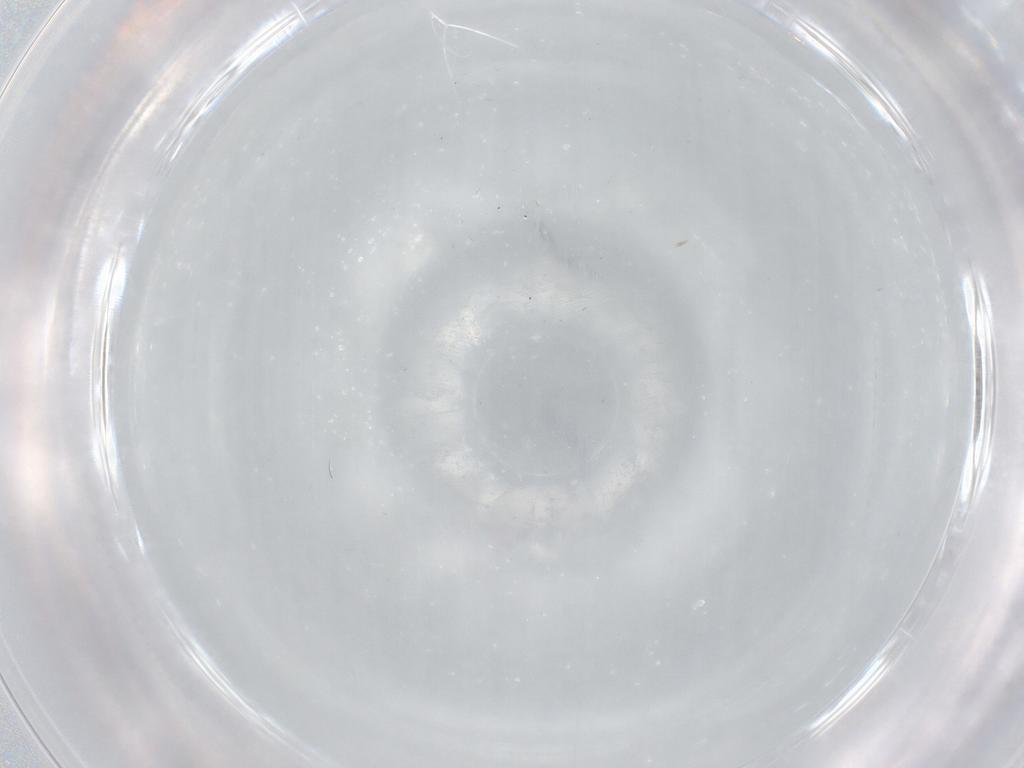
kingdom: Animalia
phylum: Arthropoda
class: Insecta
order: Diptera
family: Cecidomyiidae
